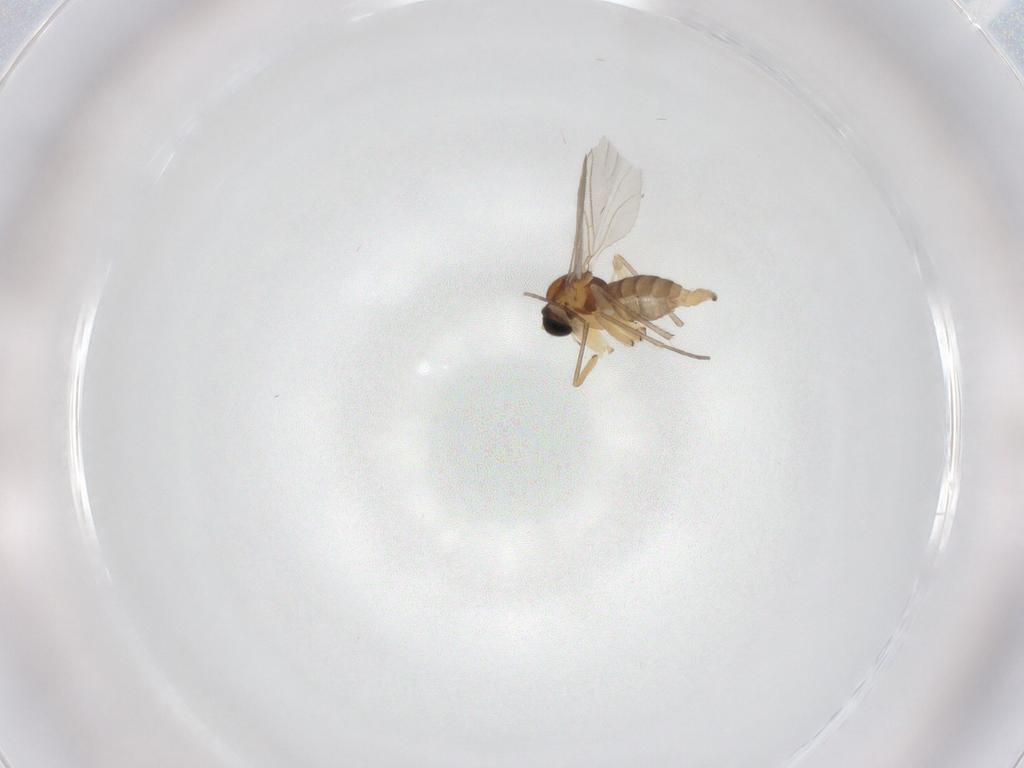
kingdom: Animalia
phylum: Arthropoda
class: Insecta
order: Diptera
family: Sciaridae
